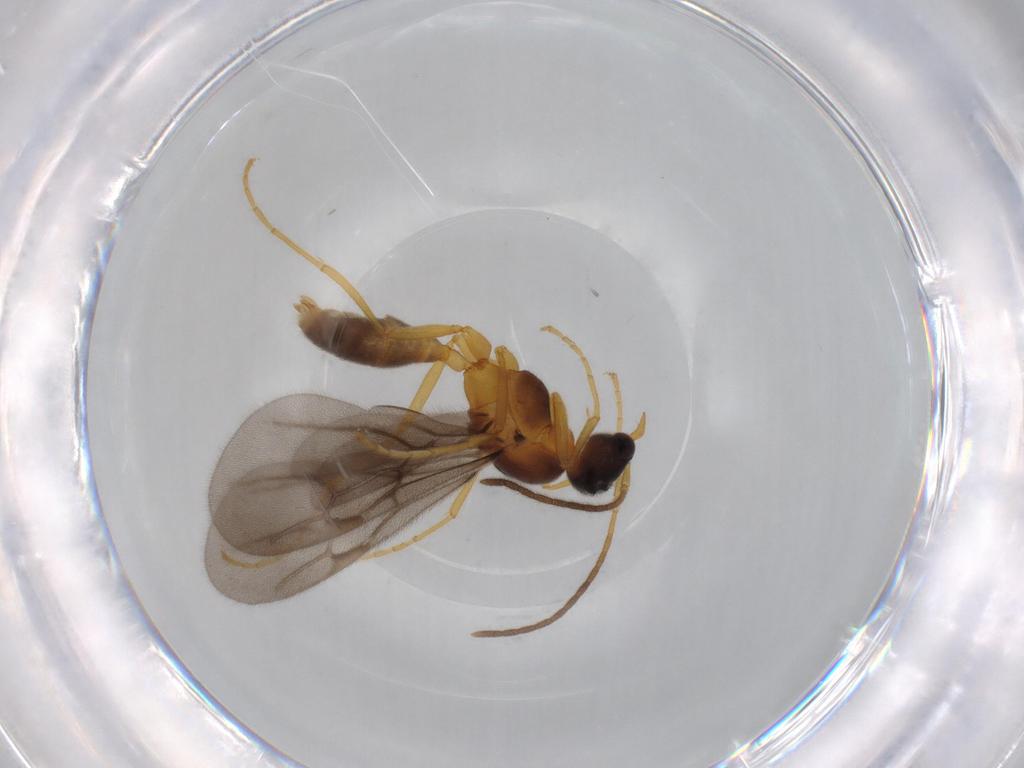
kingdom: Animalia
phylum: Arthropoda
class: Insecta
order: Hymenoptera
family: Formicidae
